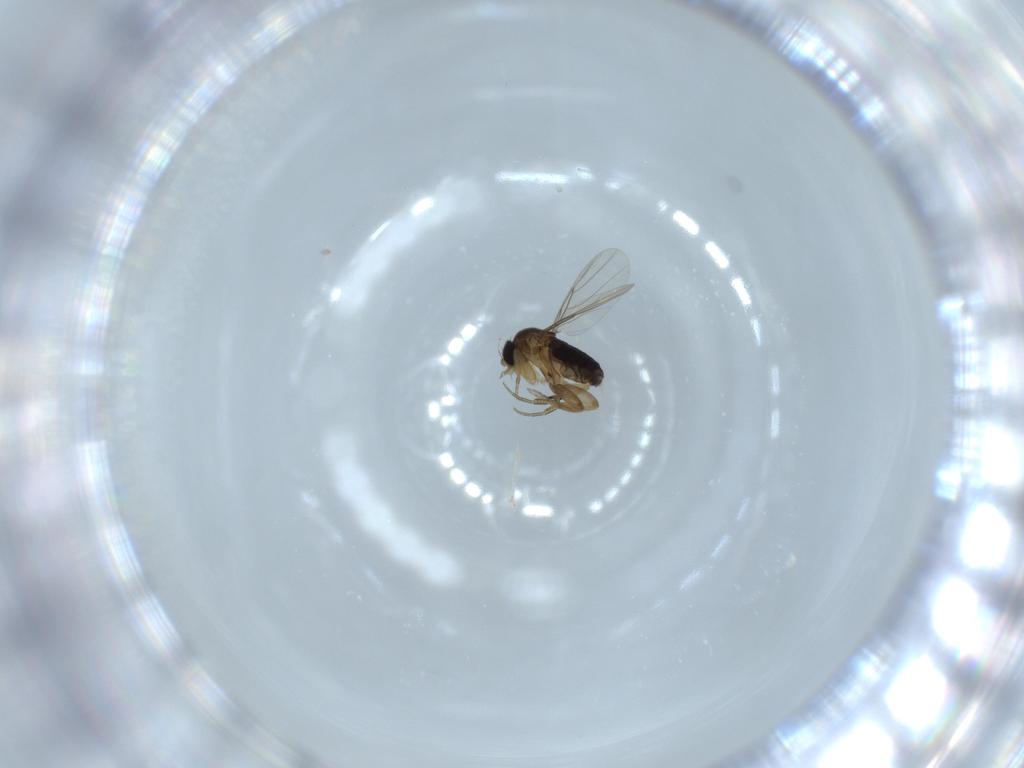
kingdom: Animalia
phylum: Arthropoda
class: Insecta
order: Diptera
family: Phoridae
